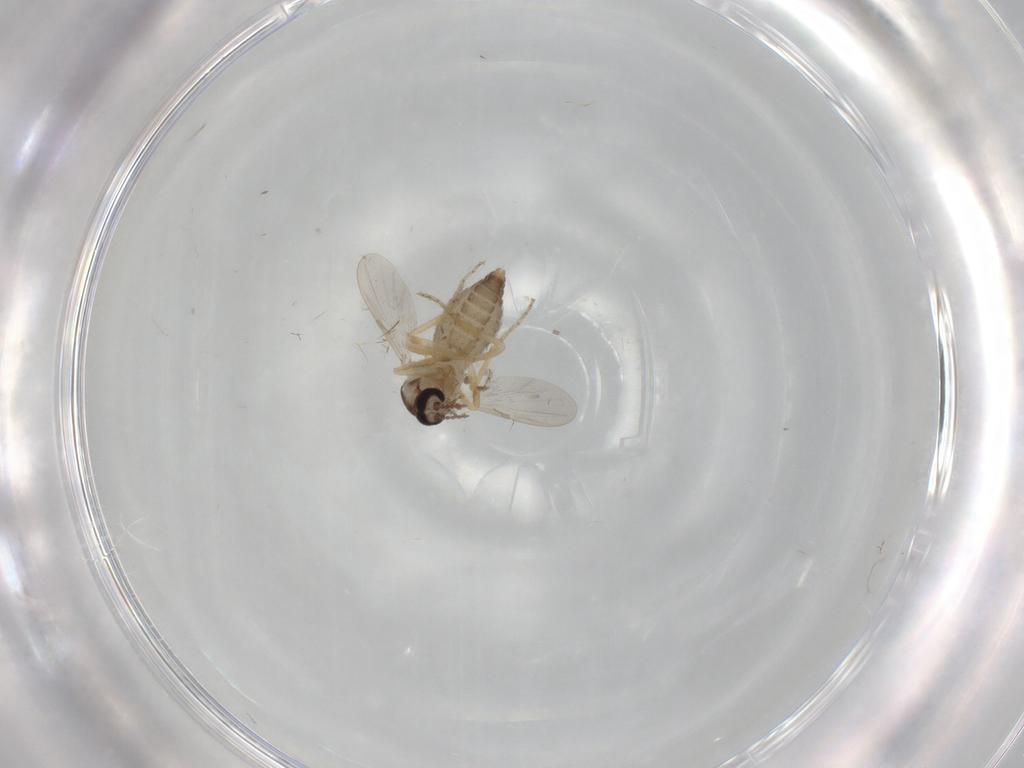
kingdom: Animalia
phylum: Arthropoda
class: Insecta
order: Diptera
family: Ceratopogonidae
